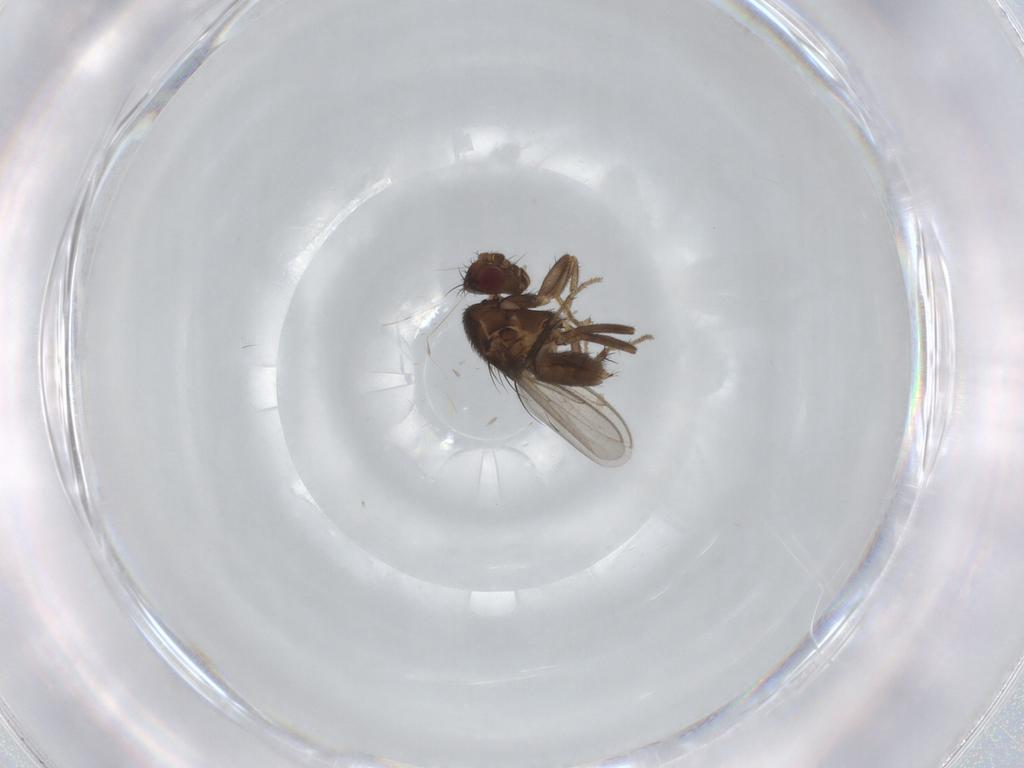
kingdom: Animalia
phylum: Arthropoda
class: Insecta
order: Diptera
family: Sphaeroceridae
